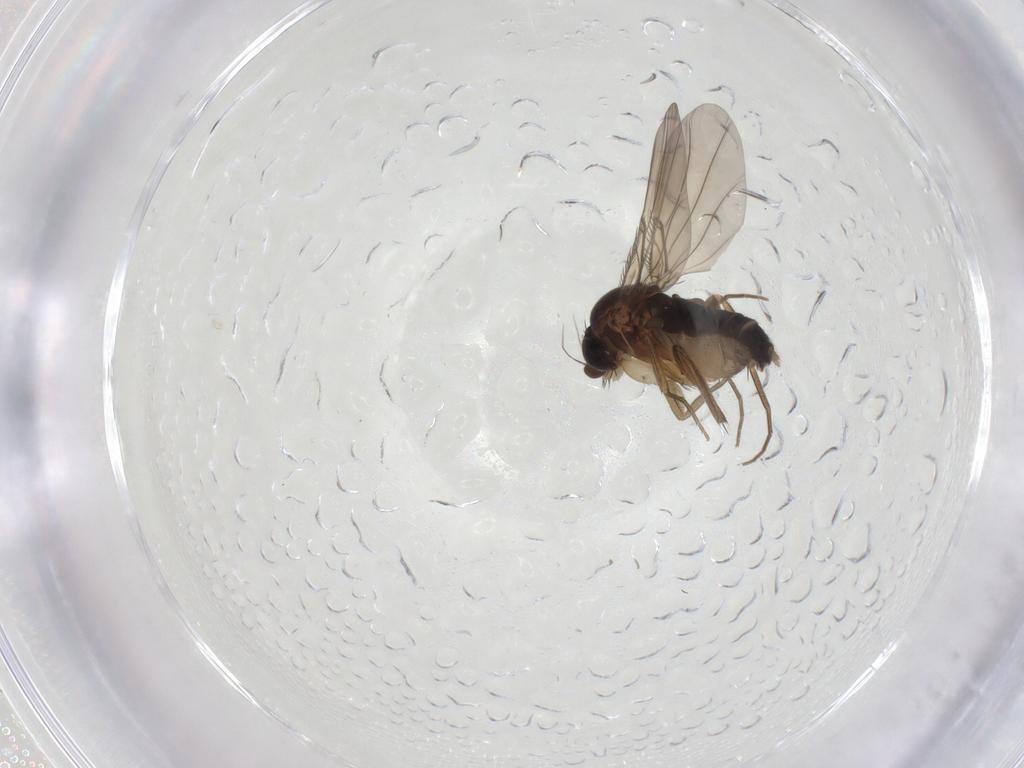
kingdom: Animalia
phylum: Arthropoda
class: Insecta
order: Diptera
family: Phoridae
